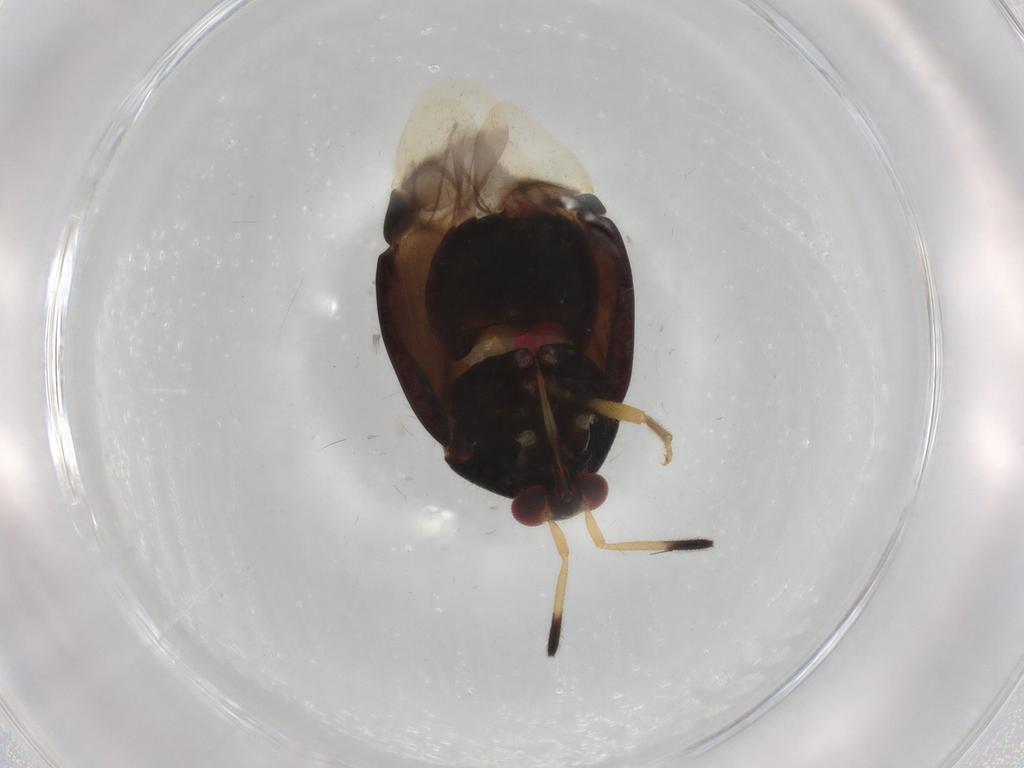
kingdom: Animalia
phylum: Arthropoda
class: Insecta
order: Hemiptera
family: Miridae
